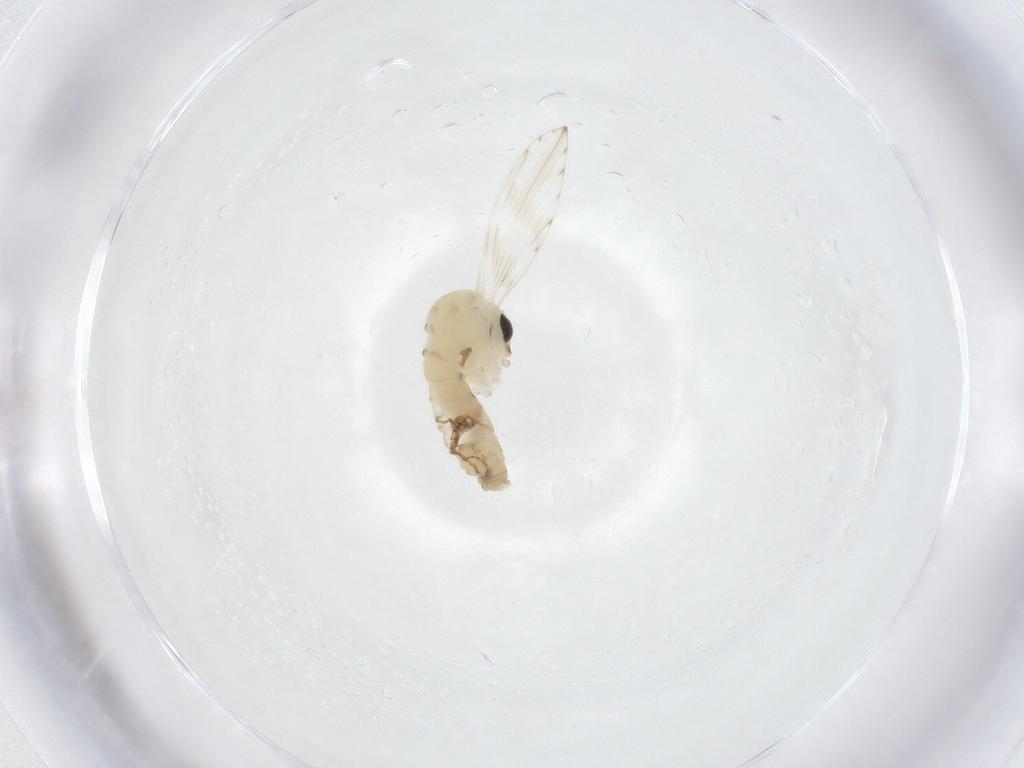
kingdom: Animalia
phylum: Arthropoda
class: Insecta
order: Diptera
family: Psychodidae
